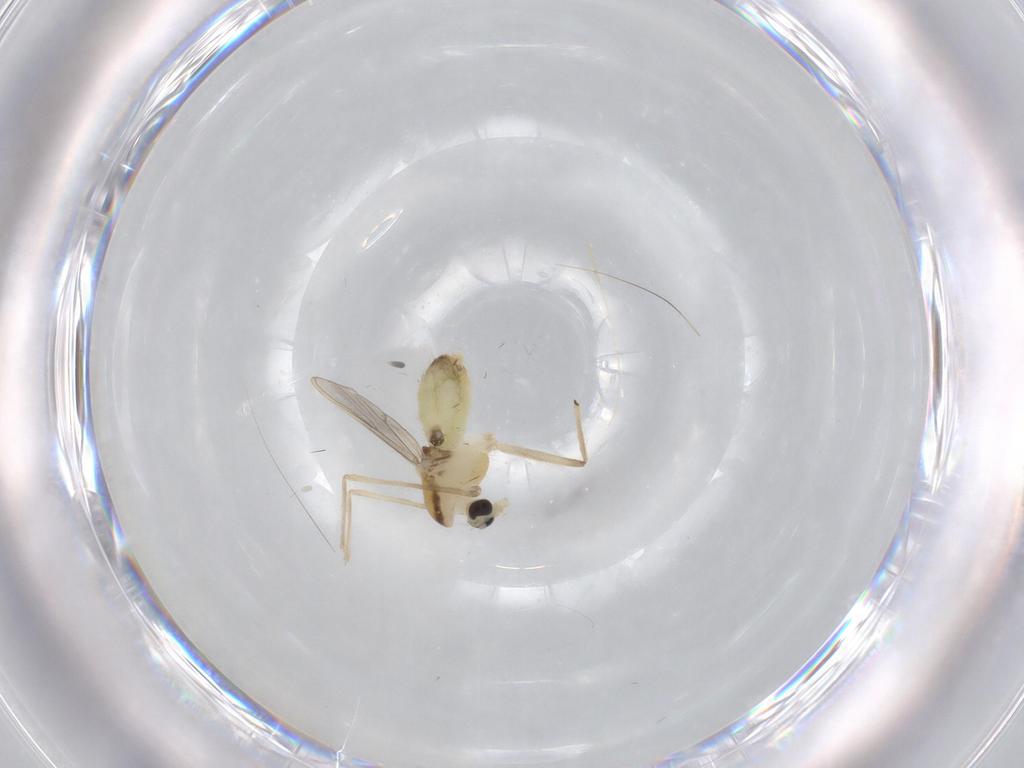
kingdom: Animalia
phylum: Arthropoda
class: Insecta
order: Diptera
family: Chironomidae
